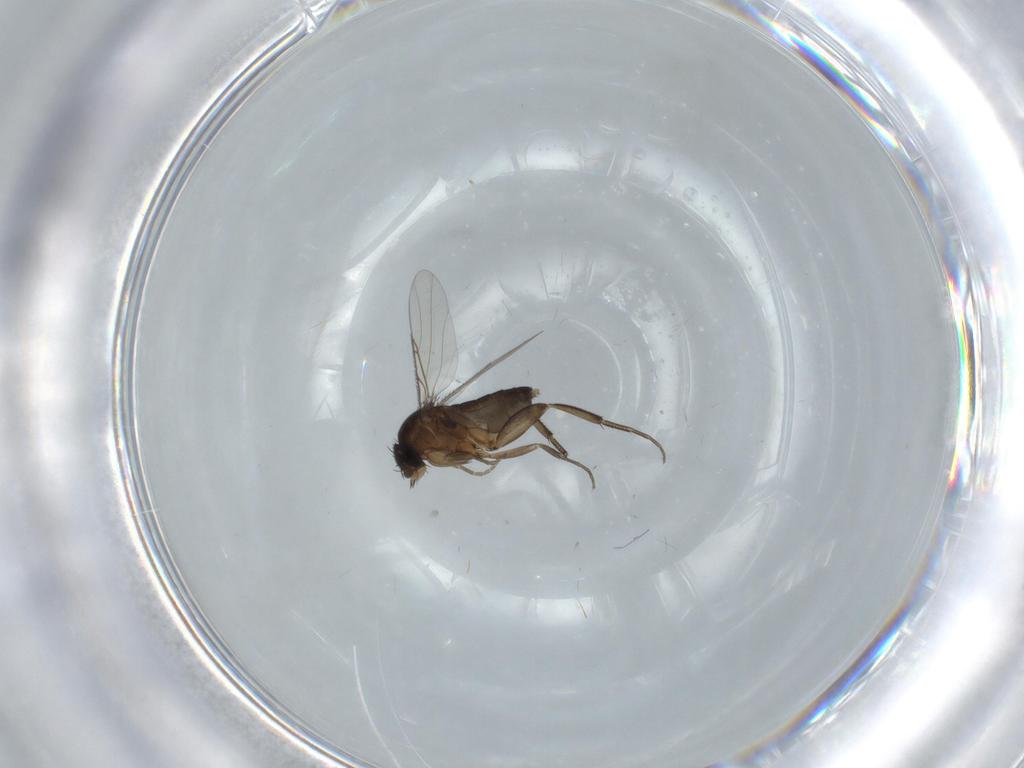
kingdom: Animalia
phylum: Arthropoda
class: Insecta
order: Diptera
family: Phoridae
